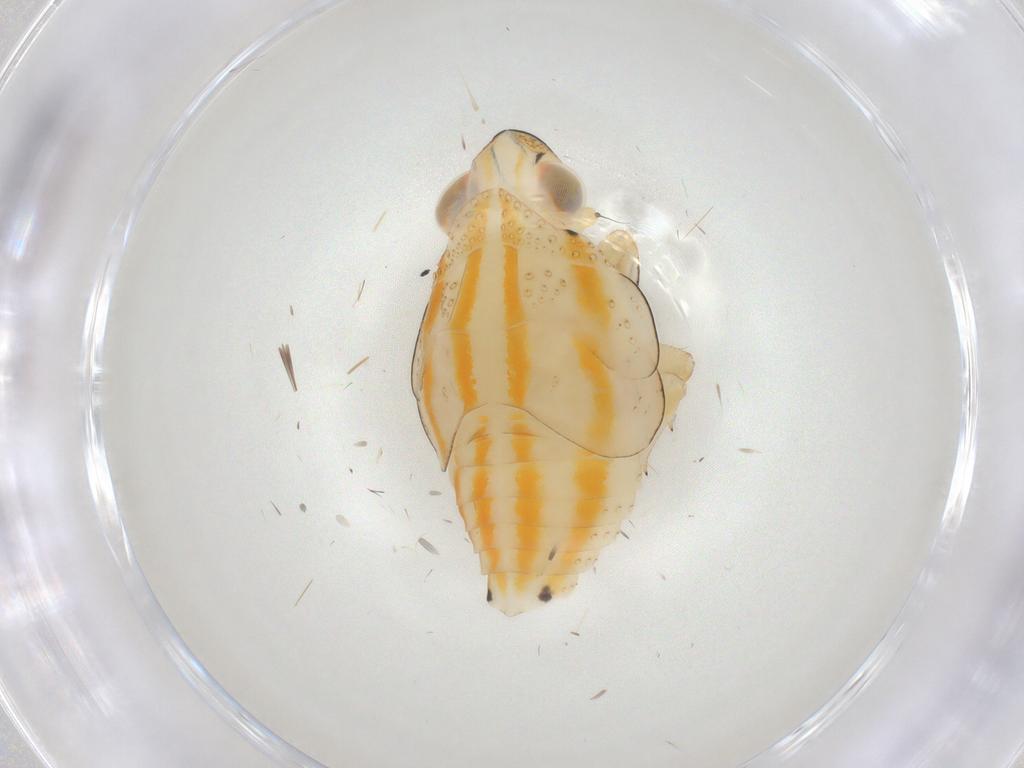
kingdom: Animalia
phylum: Arthropoda
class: Insecta
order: Hemiptera
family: Issidae
